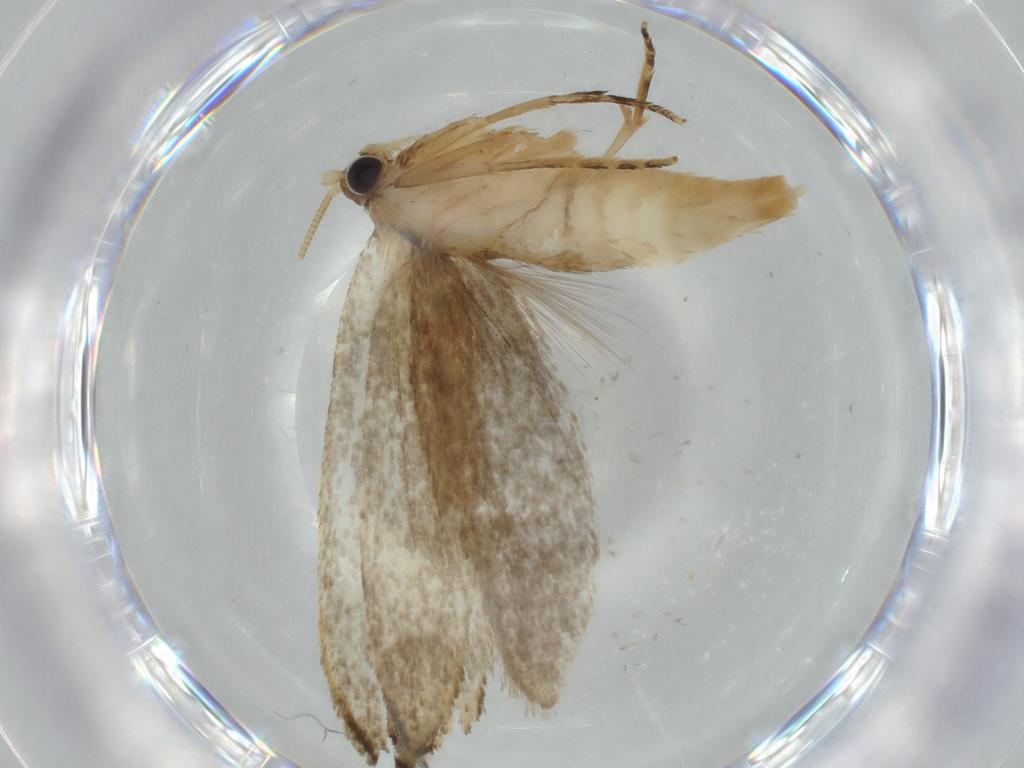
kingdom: Animalia
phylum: Arthropoda
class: Insecta
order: Lepidoptera
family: Tineidae
